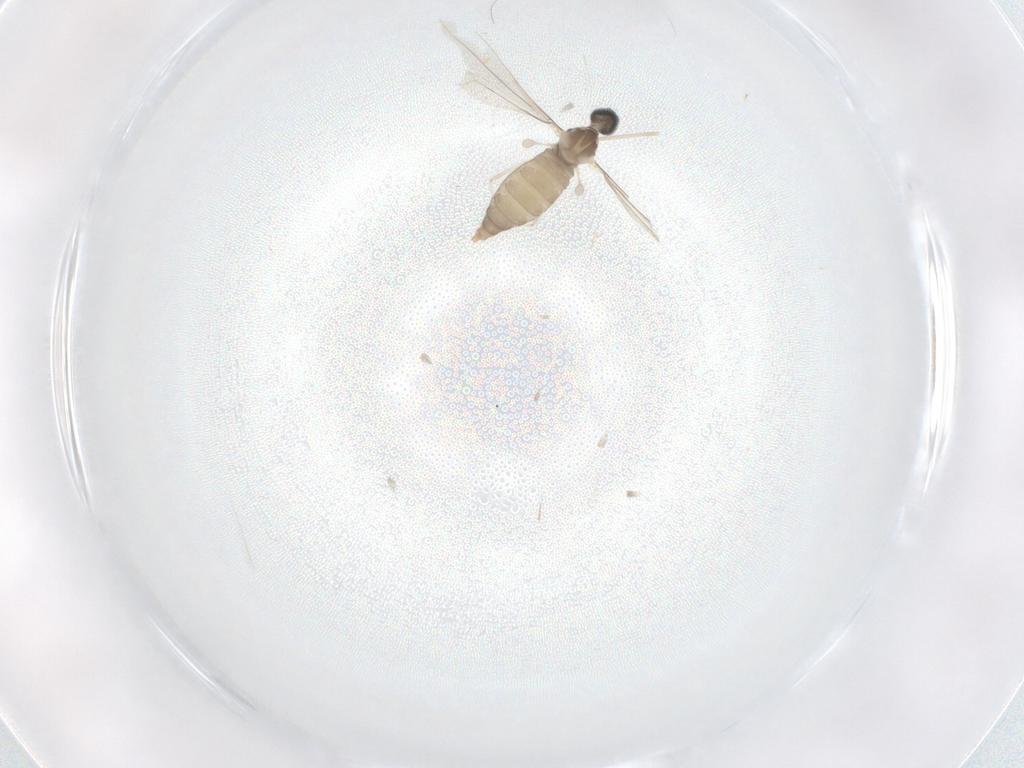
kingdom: Animalia
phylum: Arthropoda
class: Insecta
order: Diptera
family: Cecidomyiidae
